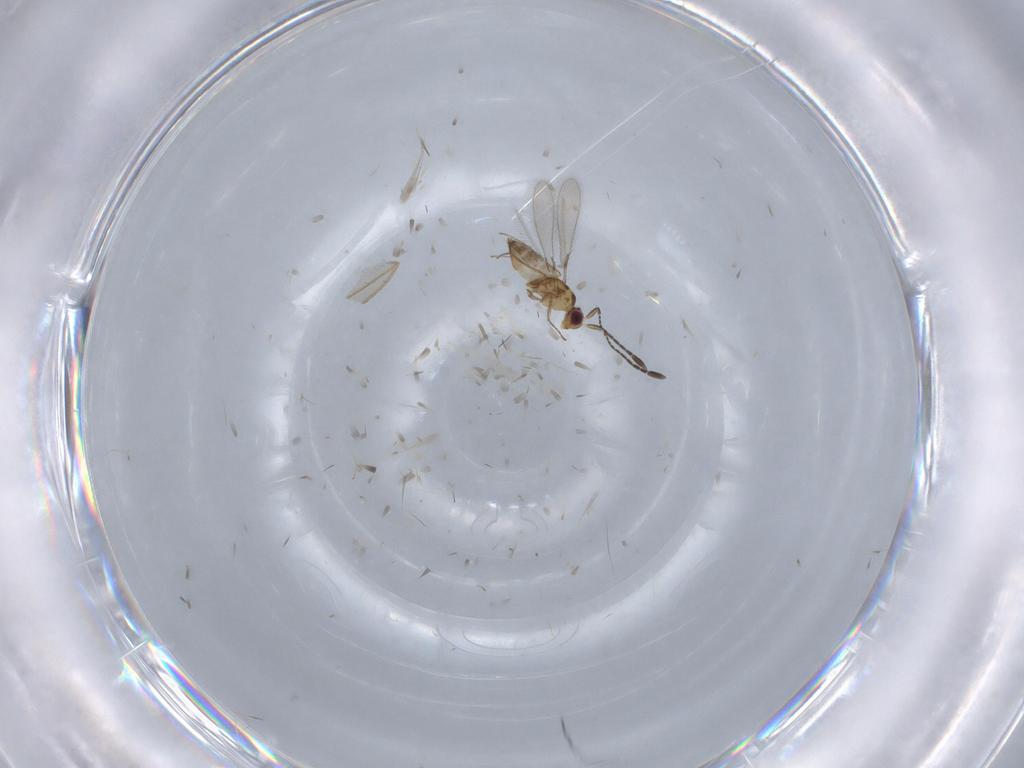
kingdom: Animalia
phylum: Arthropoda
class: Insecta
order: Hymenoptera
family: Mymaridae
